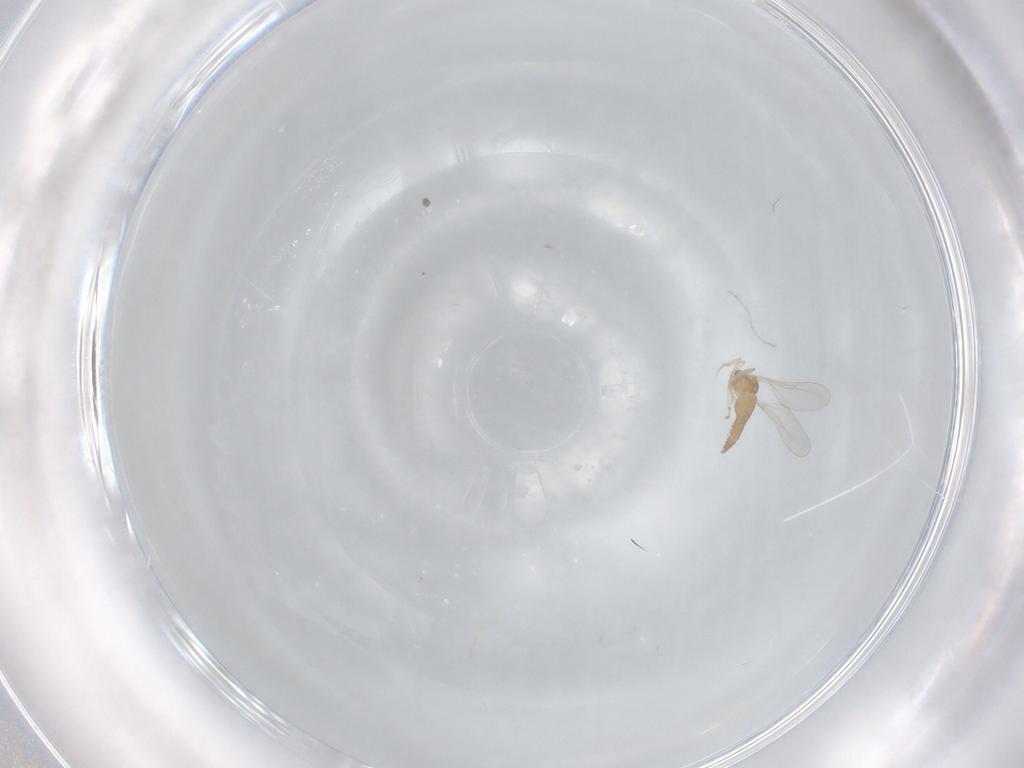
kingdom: Animalia
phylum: Arthropoda
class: Insecta
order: Diptera
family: Cecidomyiidae
